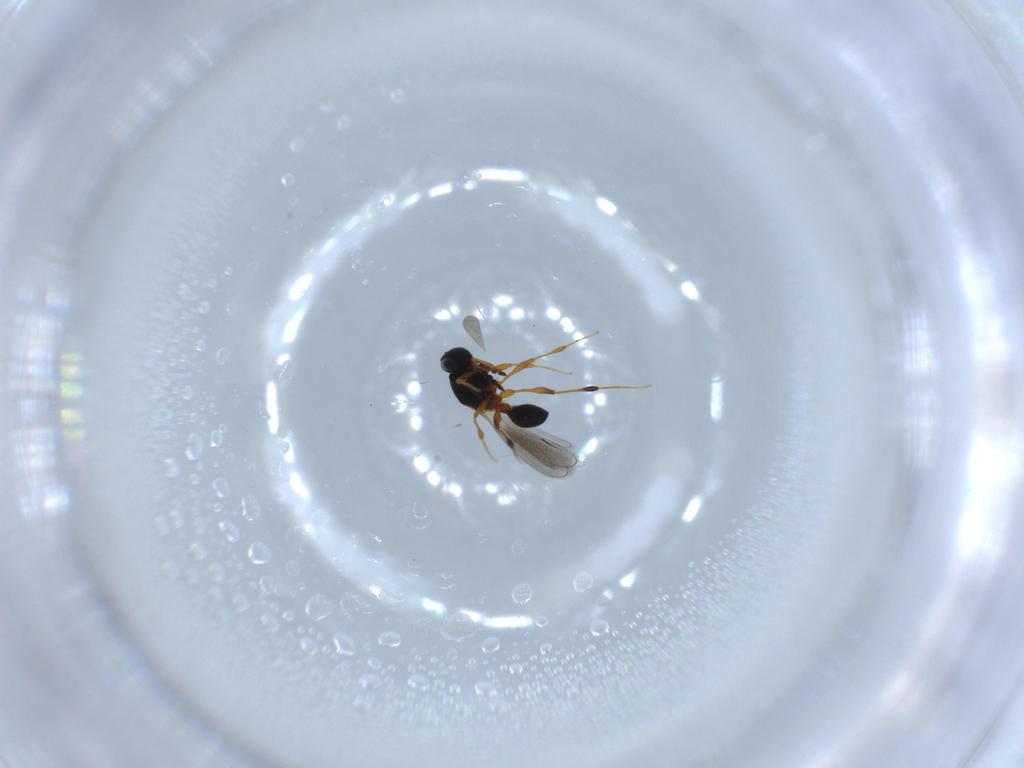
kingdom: Animalia
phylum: Arthropoda
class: Insecta
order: Hymenoptera
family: Platygastridae
